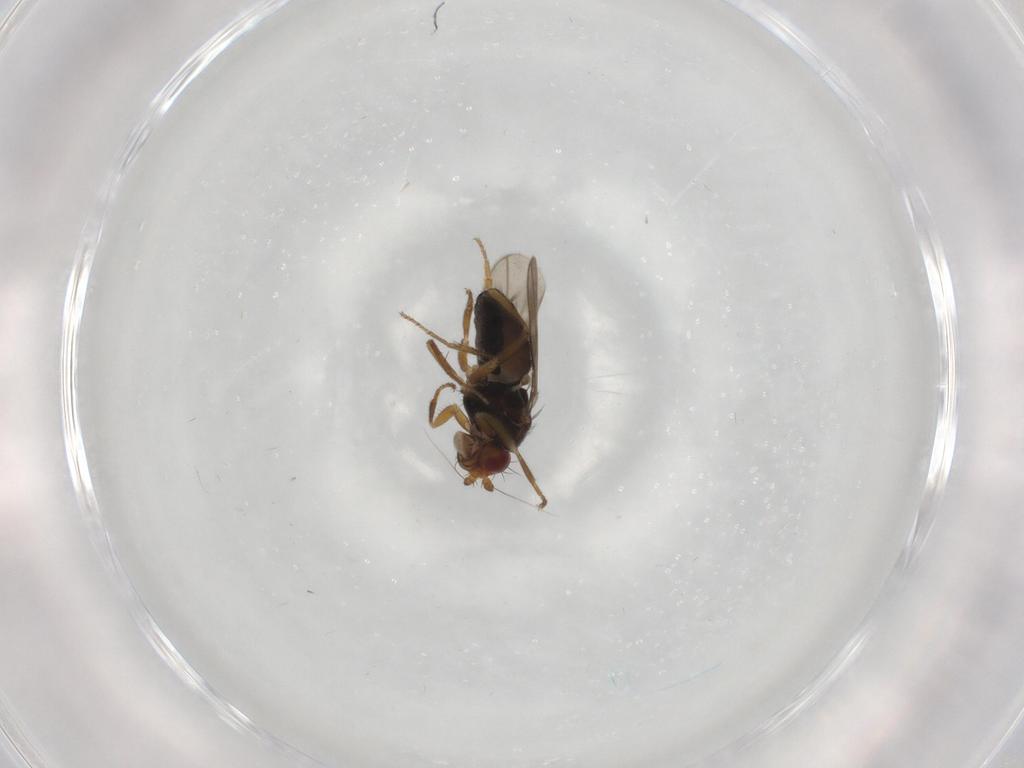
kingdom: Animalia
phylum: Arthropoda
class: Insecta
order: Diptera
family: Sphaeroceridae
